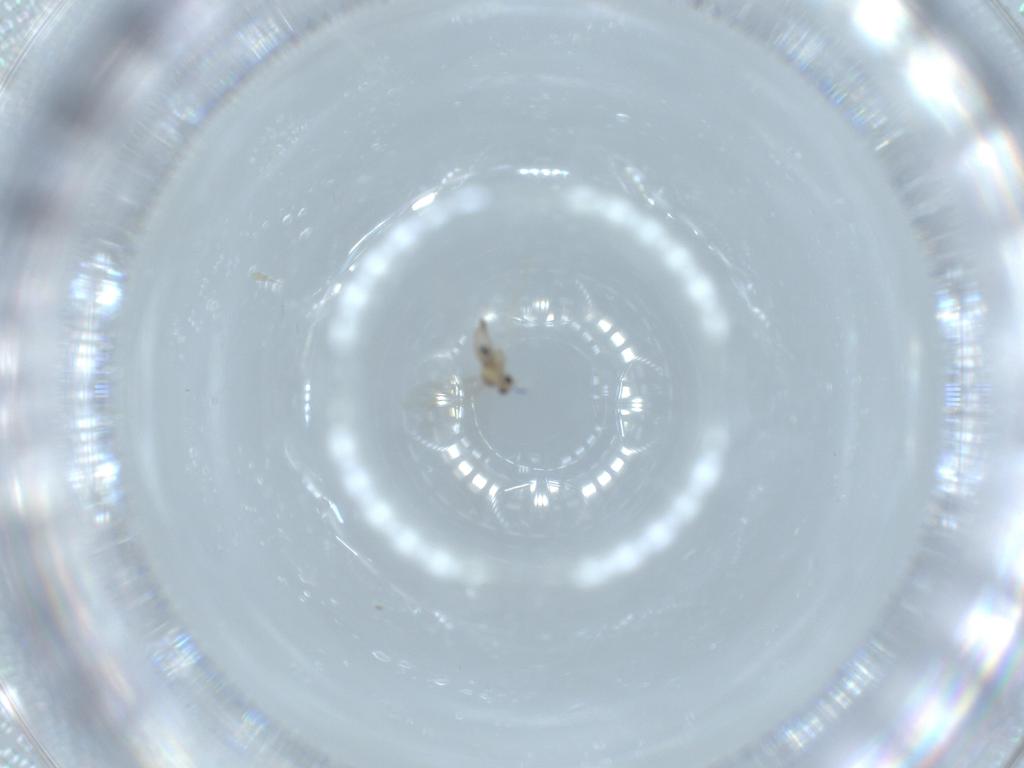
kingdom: Animalia
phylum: Arthropoda
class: Insecta
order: Diptera
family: Cecidomyiidae
